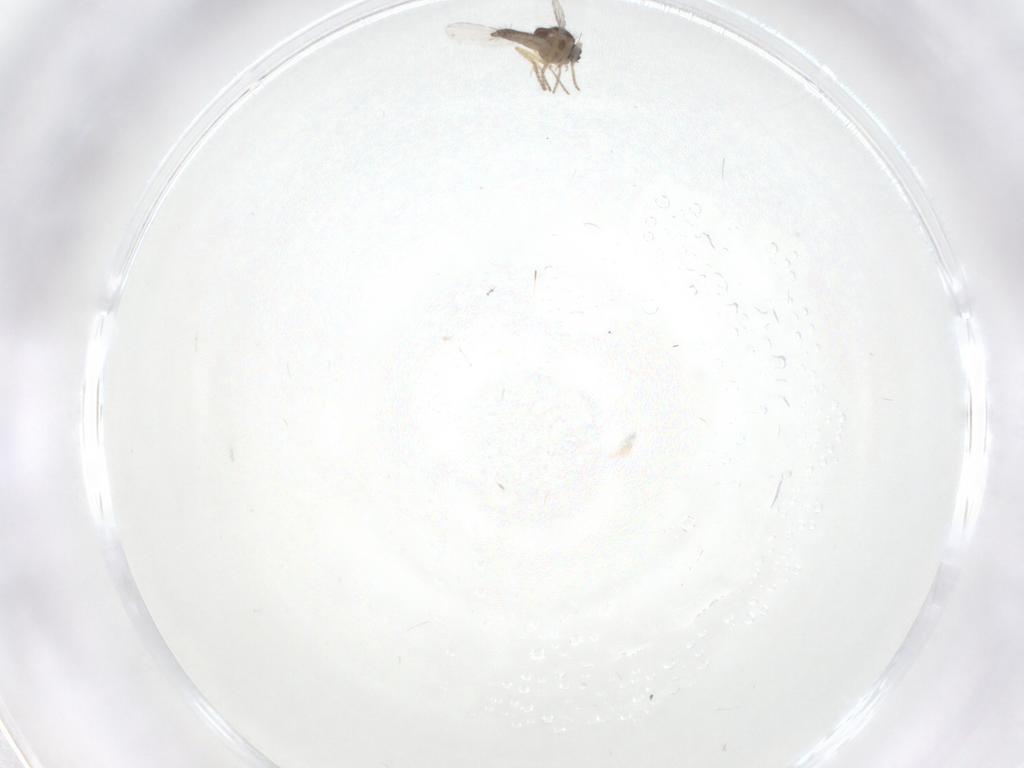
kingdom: Animalia
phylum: Arthropoda
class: Insecta
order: Diptera
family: Cecidomyiidae
